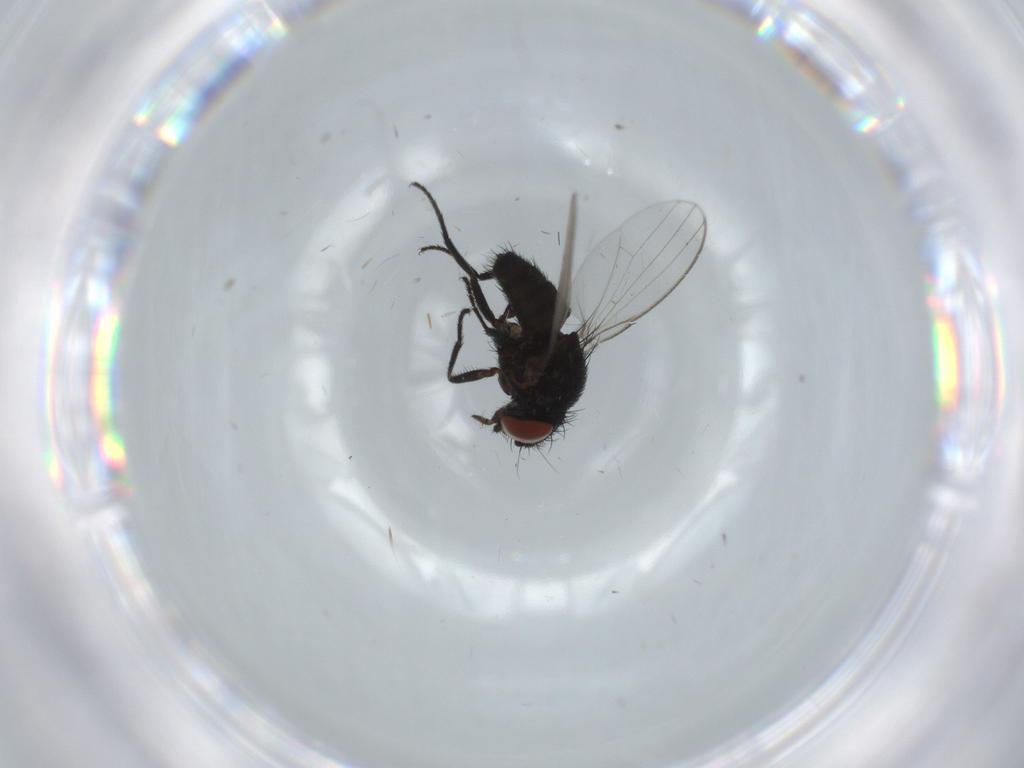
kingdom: Animalia
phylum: Arthropoda
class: Insecta
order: Diptera
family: Milichiidae
